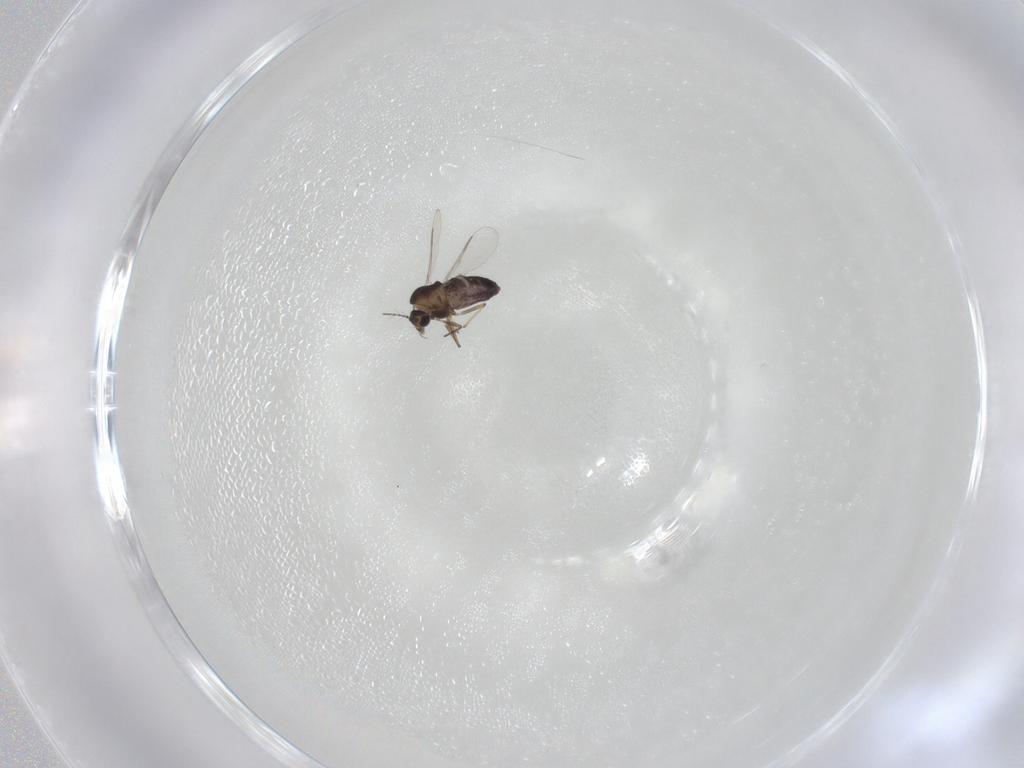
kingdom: Animalia
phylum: Arthropoda
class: Insecta
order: Diptera
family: Chironomidae
